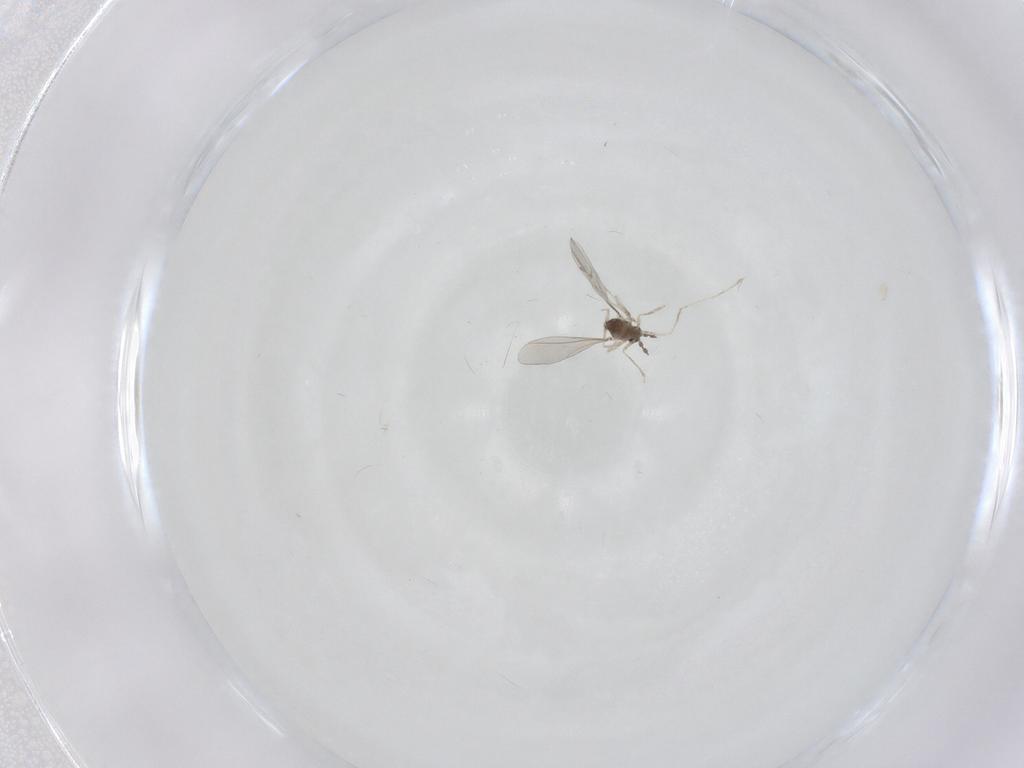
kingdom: Animalia
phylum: Arthropoda
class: Insecta
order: Diptera
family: Cecidomyiidae
